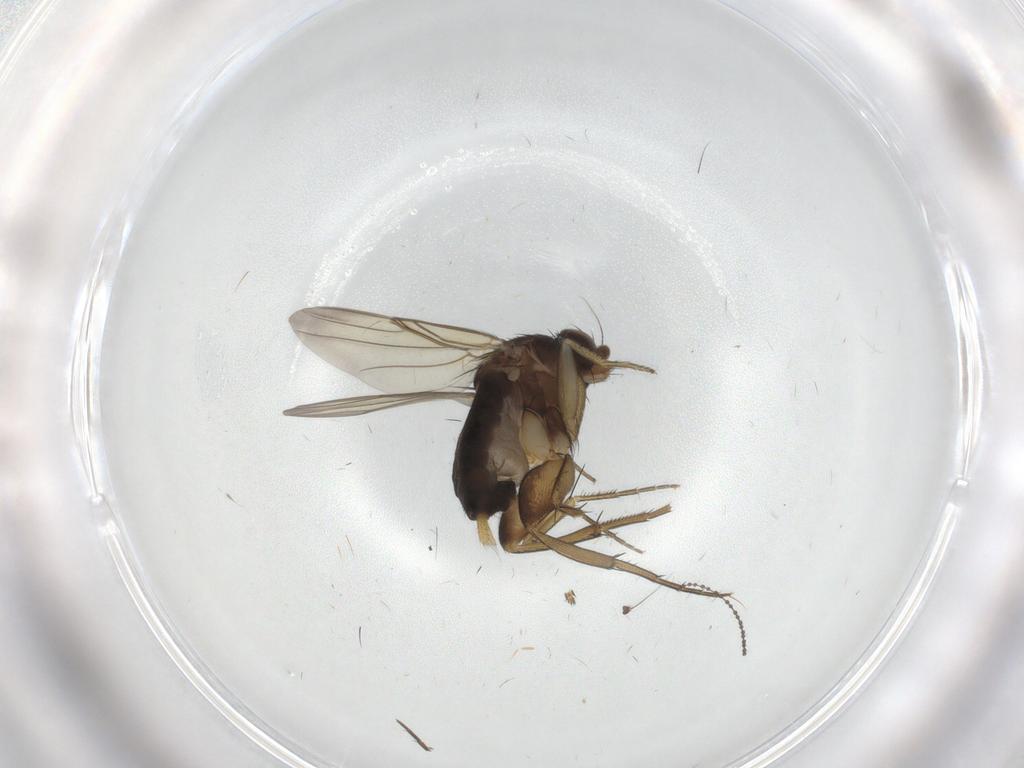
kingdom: Animalia
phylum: Arthropoda
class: Insecta
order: Diptera
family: Phoridae
